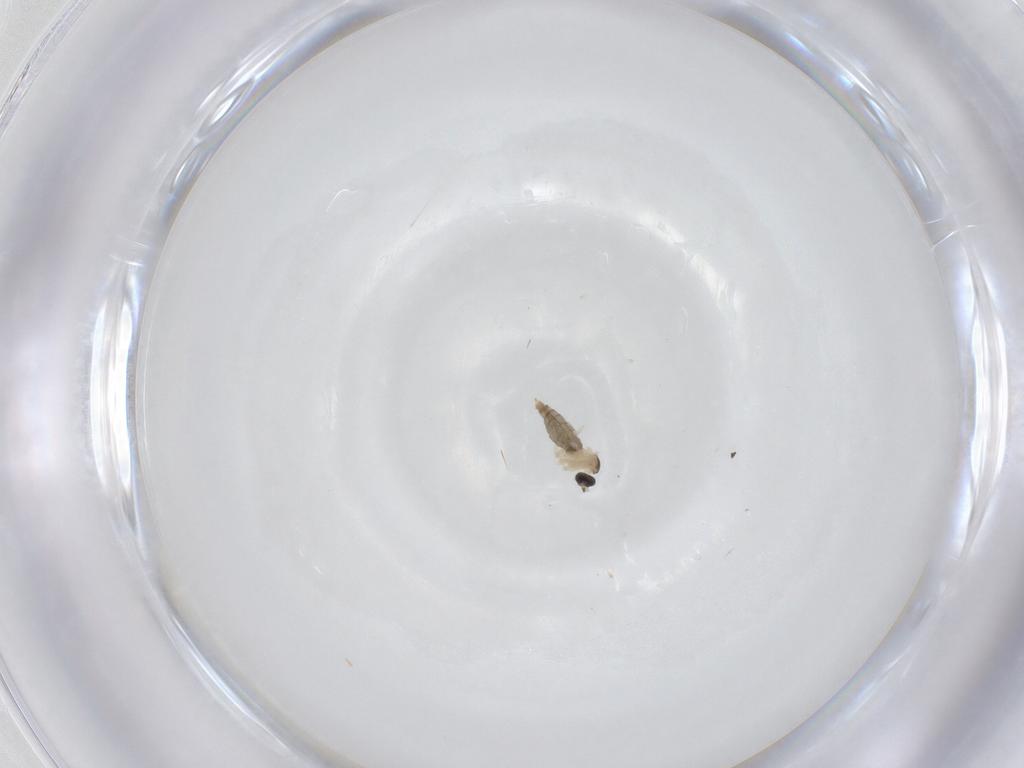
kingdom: Animalia
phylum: Arthropoda
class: Insecta
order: Diptera
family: Cecidomyiidae
